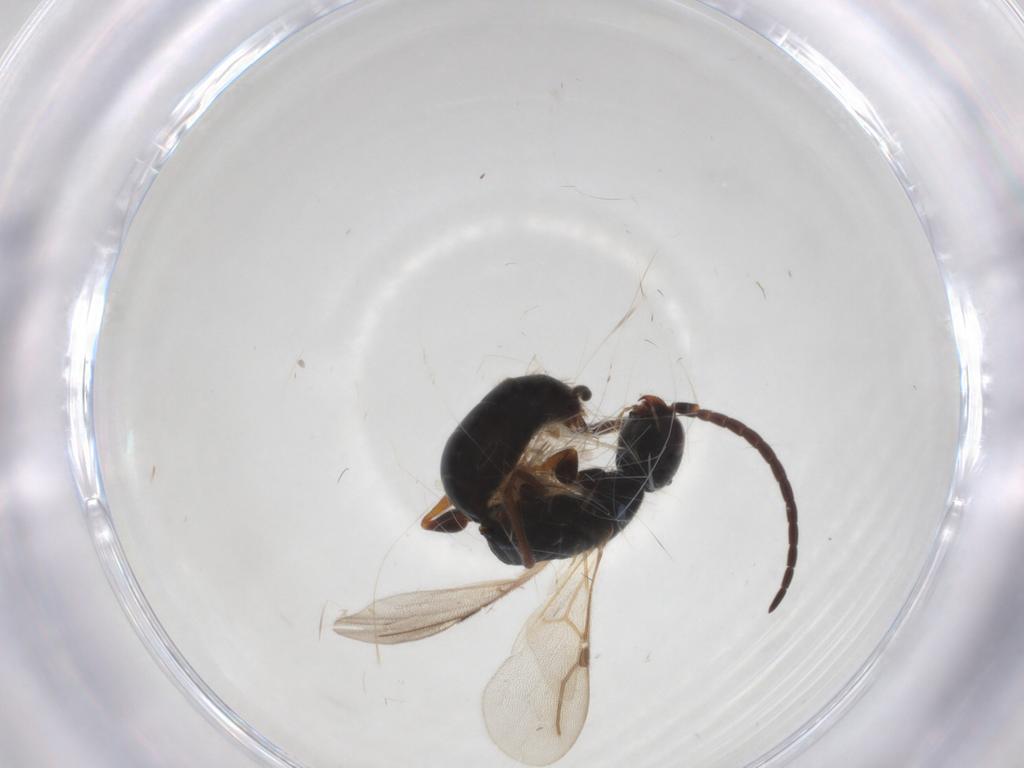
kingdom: Animalia
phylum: Arthropoda
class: Insecta
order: Hymenoptera
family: Bethylidae
